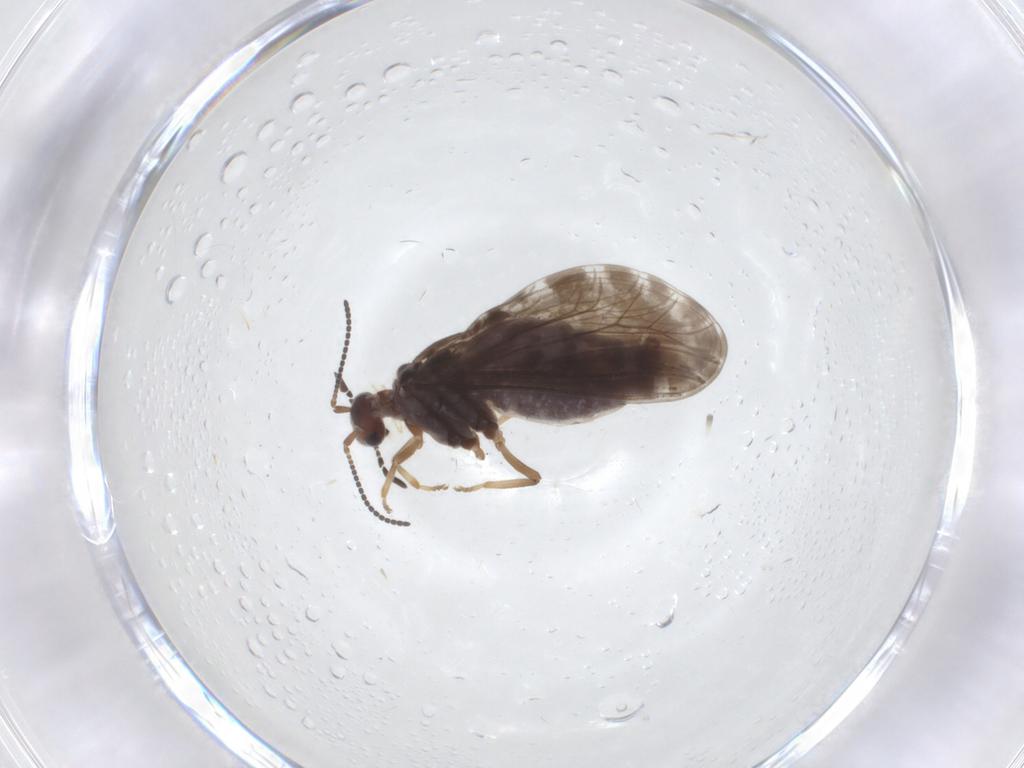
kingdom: Animalia
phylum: Arthropoda
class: Insecta
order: Neuroptera
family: Coniopterygidae
